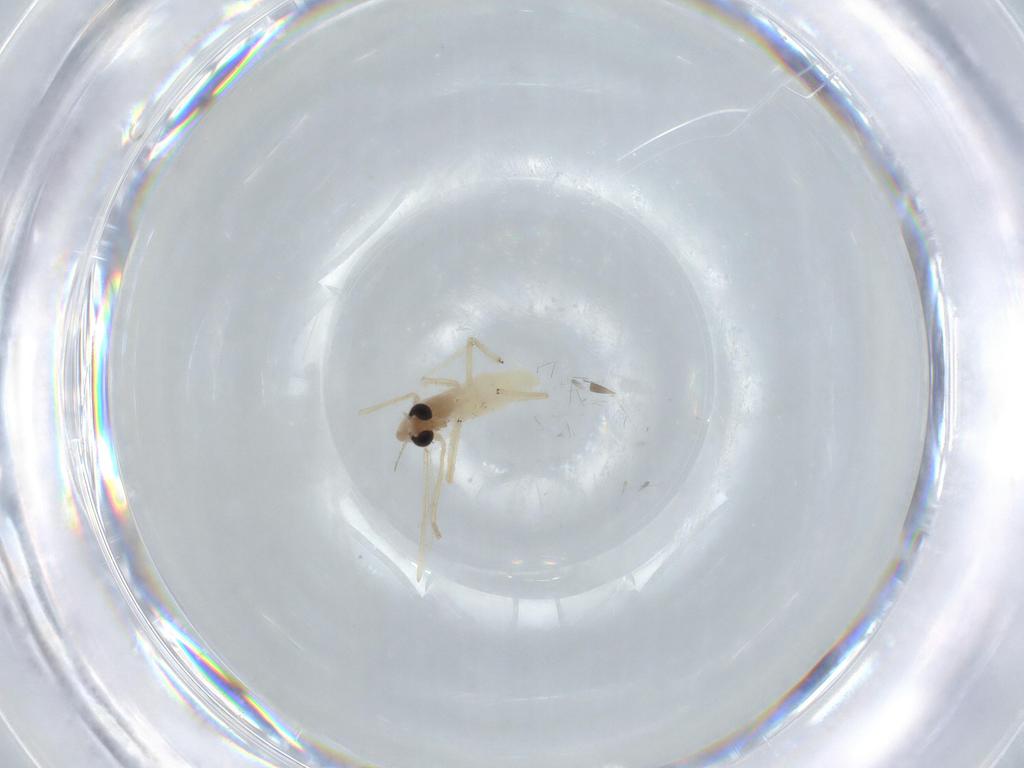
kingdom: Animalia
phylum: Arthropoda
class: Insecta
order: Diptera
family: Chironomidae
